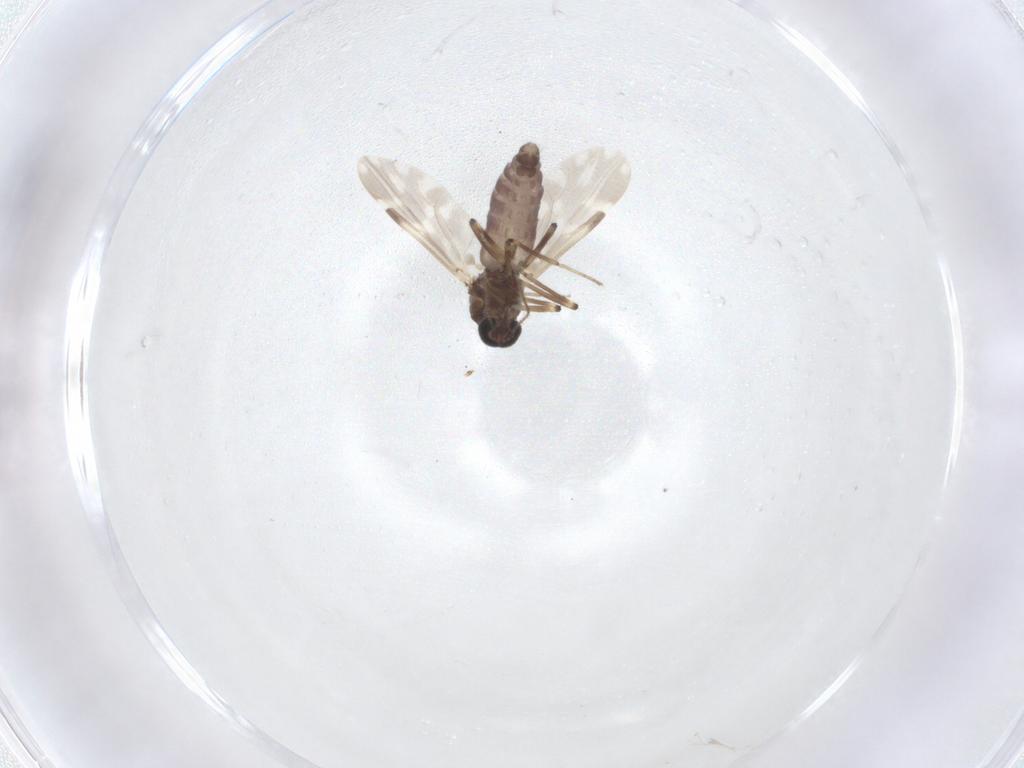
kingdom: Animalia
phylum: Arthropoda
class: Insecta
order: Diptera
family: Ceratopogonidae
